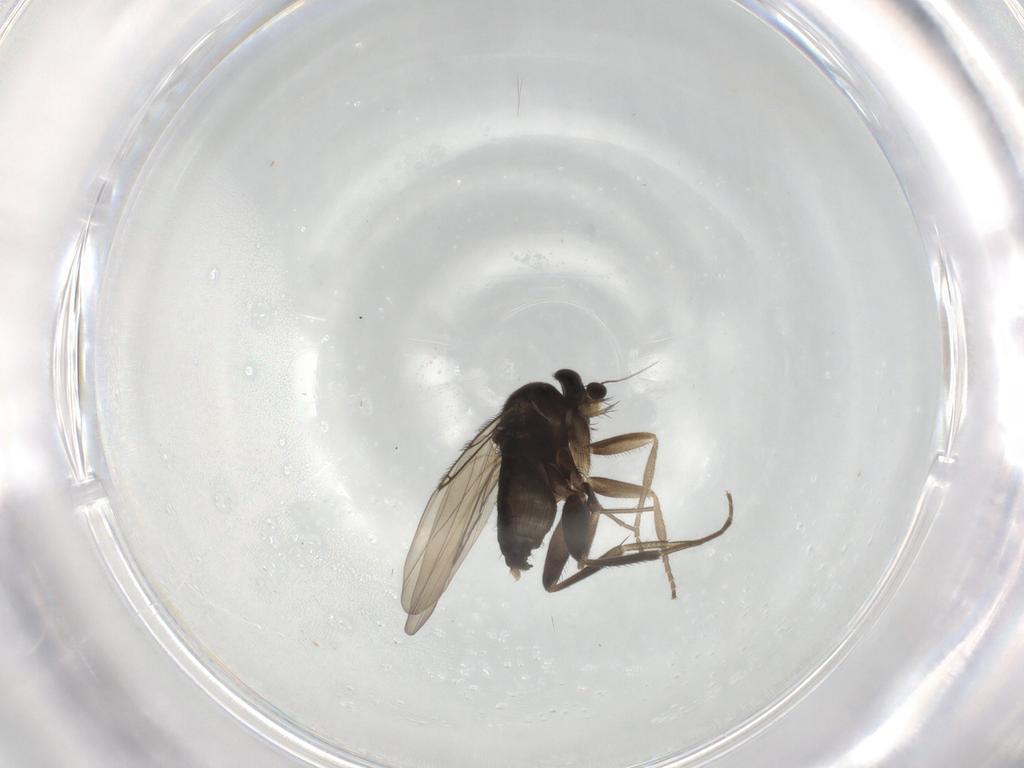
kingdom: Animalia
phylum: Arthropoda
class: Insecta
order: Diptera
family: Phoridae
